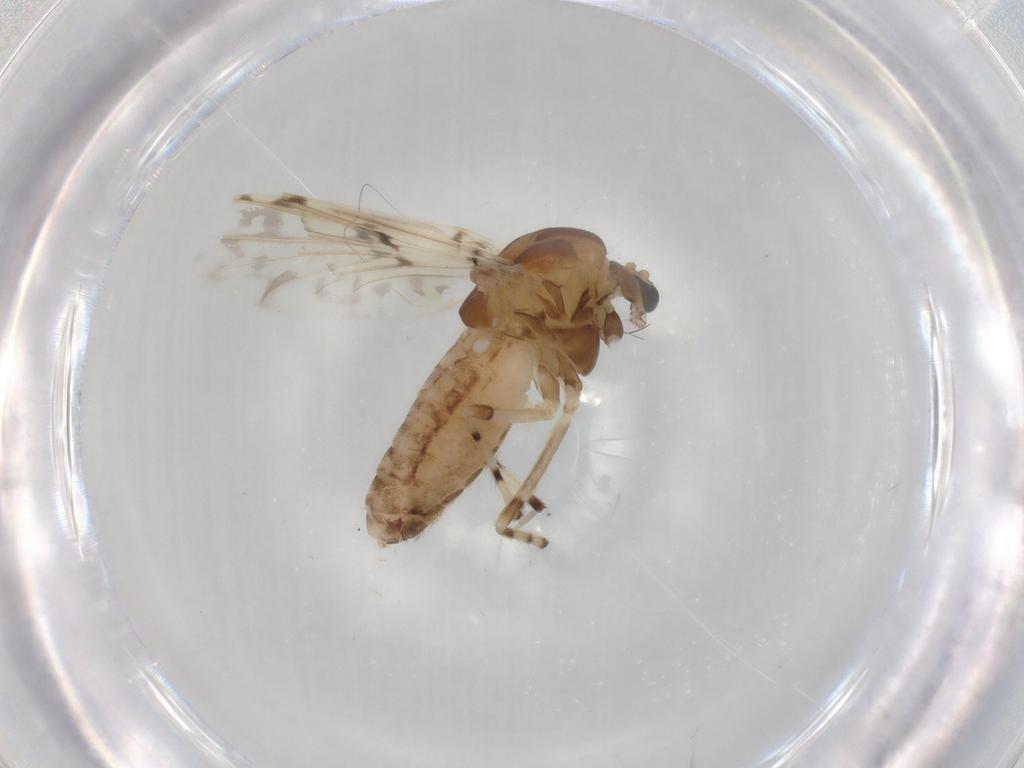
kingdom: Animalia
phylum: Arthropoda
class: Insecta
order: Diptera
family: Chironomidae
